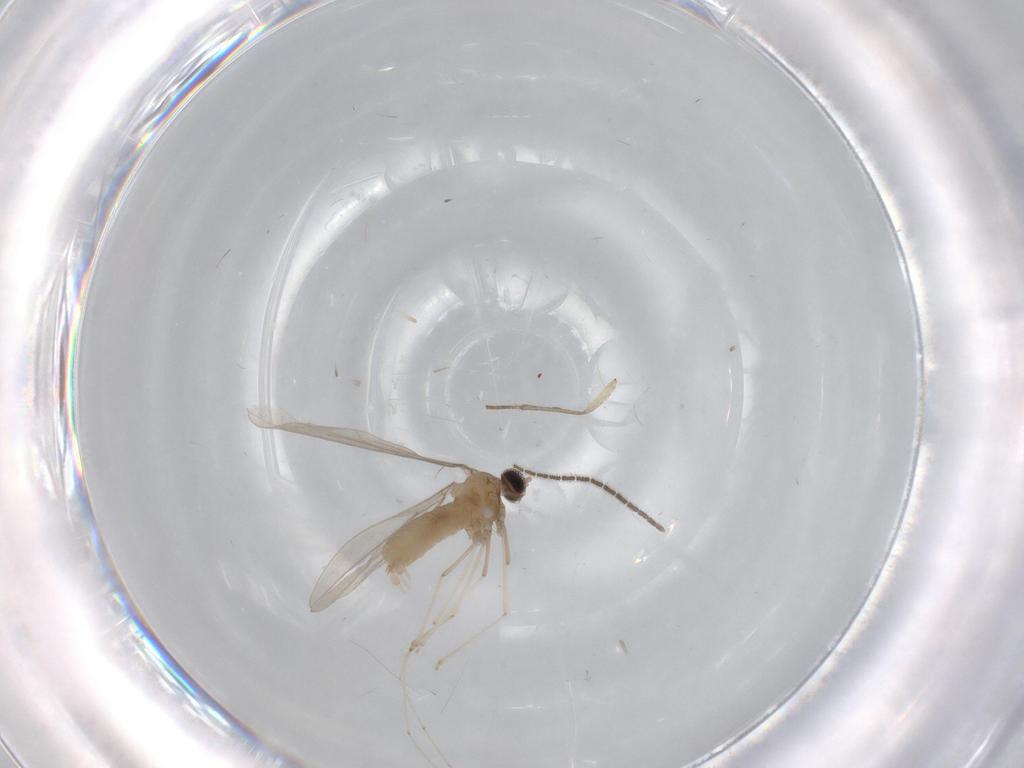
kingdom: Animalia
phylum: Arthropoda
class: Insecta
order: Diptera
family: Cecidomyiidae
